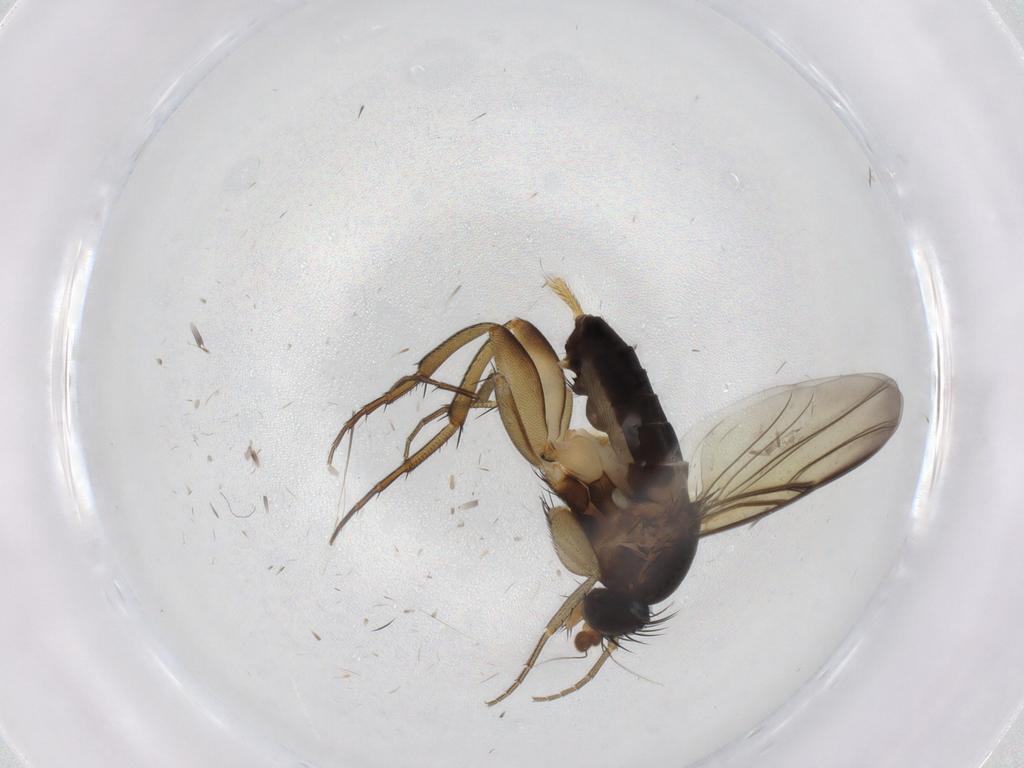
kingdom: Animalia
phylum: Arthropoda
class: Insecta
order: Diptera
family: Phoridae
